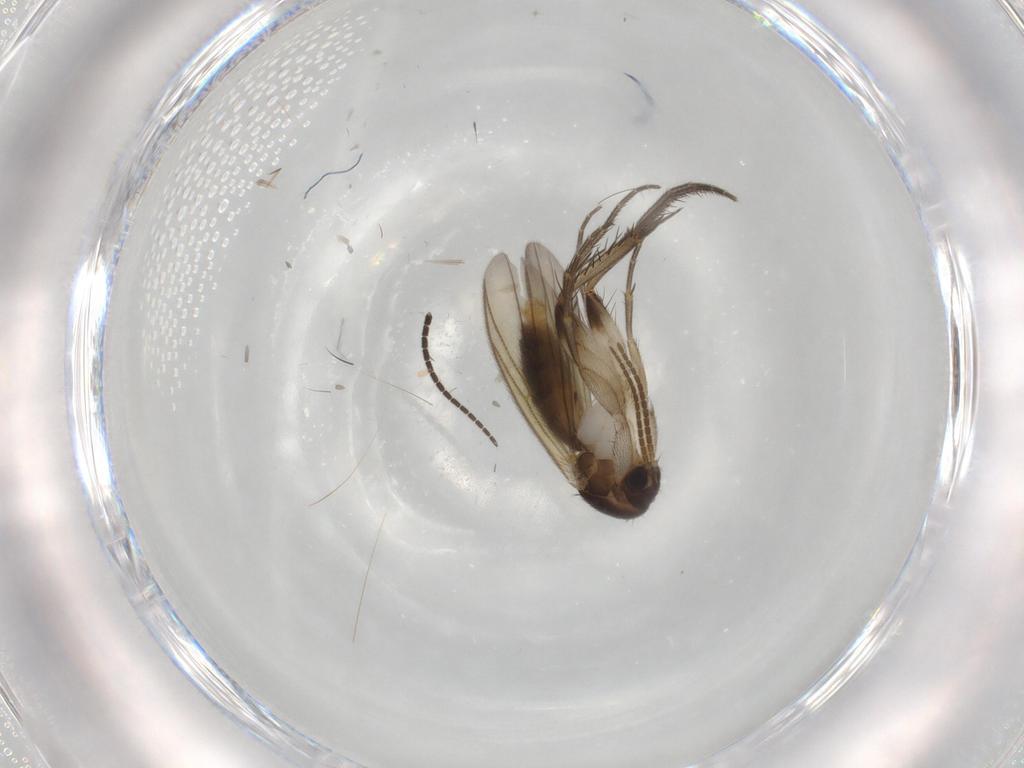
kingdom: Animalia
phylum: Arthropoda
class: Insecta
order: Diptera
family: Sciaridae
